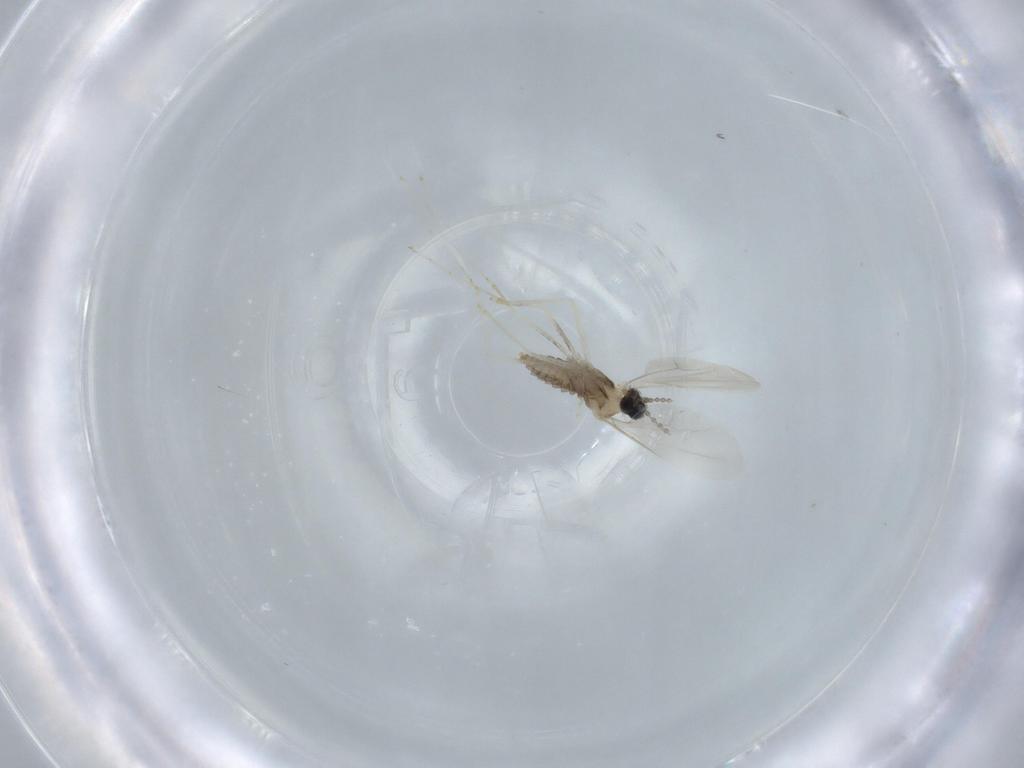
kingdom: Animalia
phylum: Arthropoda
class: Insecta
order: Diptera
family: Cecidomyiidae
